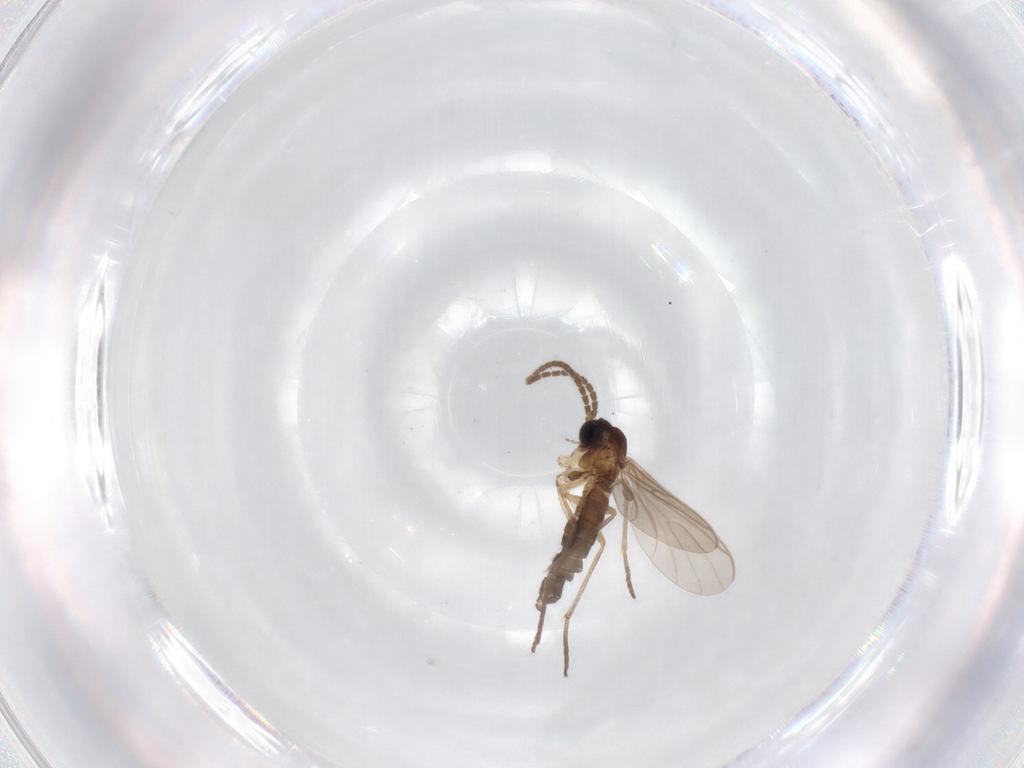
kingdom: Animalia
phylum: Arthropoda
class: Insecta
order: Diptera
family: Sciaridae
